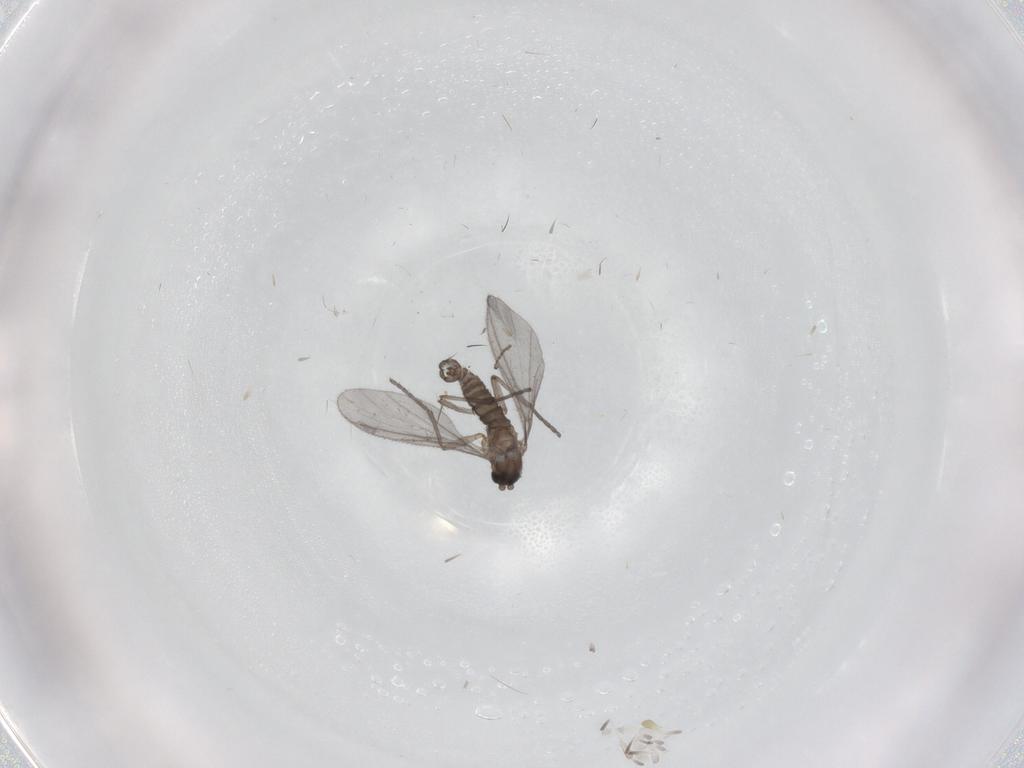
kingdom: Animalia
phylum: Arthropoda
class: Insecta
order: Diptera
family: Sciaridae
